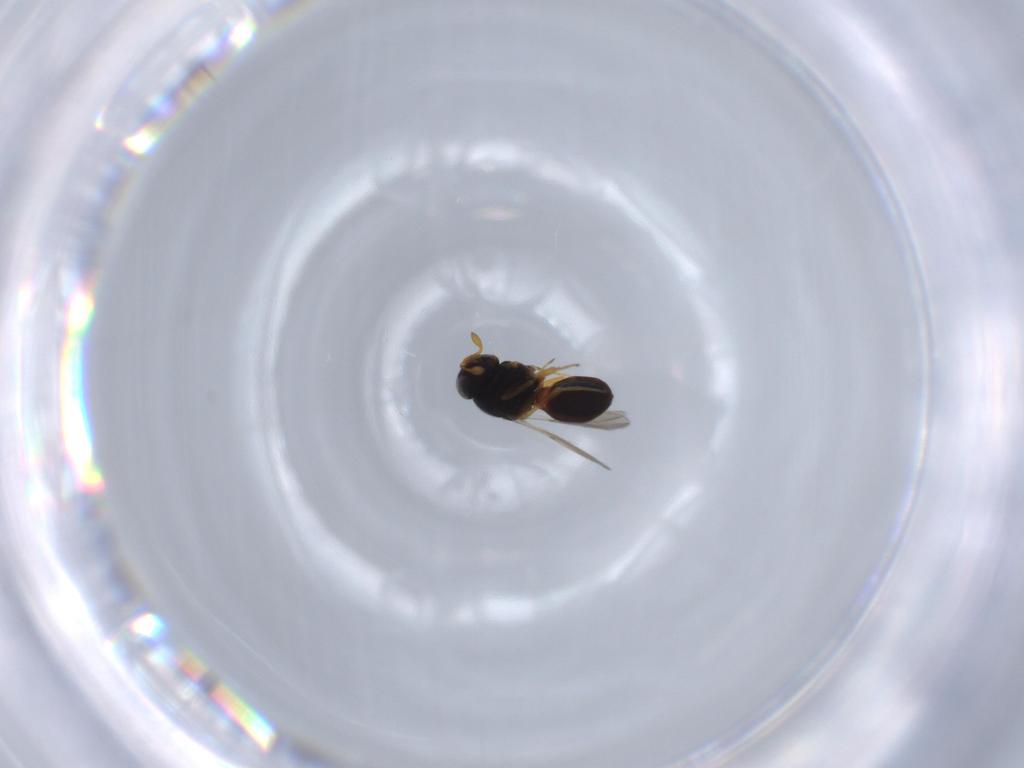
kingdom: Animalia
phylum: Arthropoda
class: Insecta
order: Hymenoptera
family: Scelionidae
